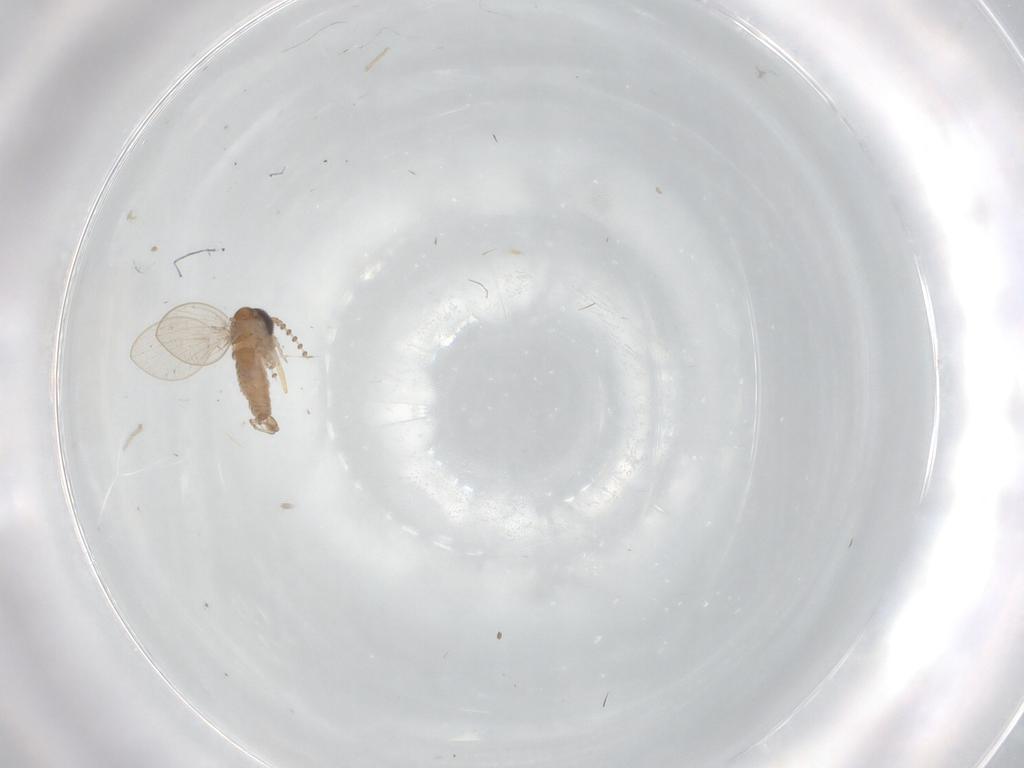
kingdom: Animalia
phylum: Arthropoda
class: Insecta
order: Diptera
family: Psychodidae
